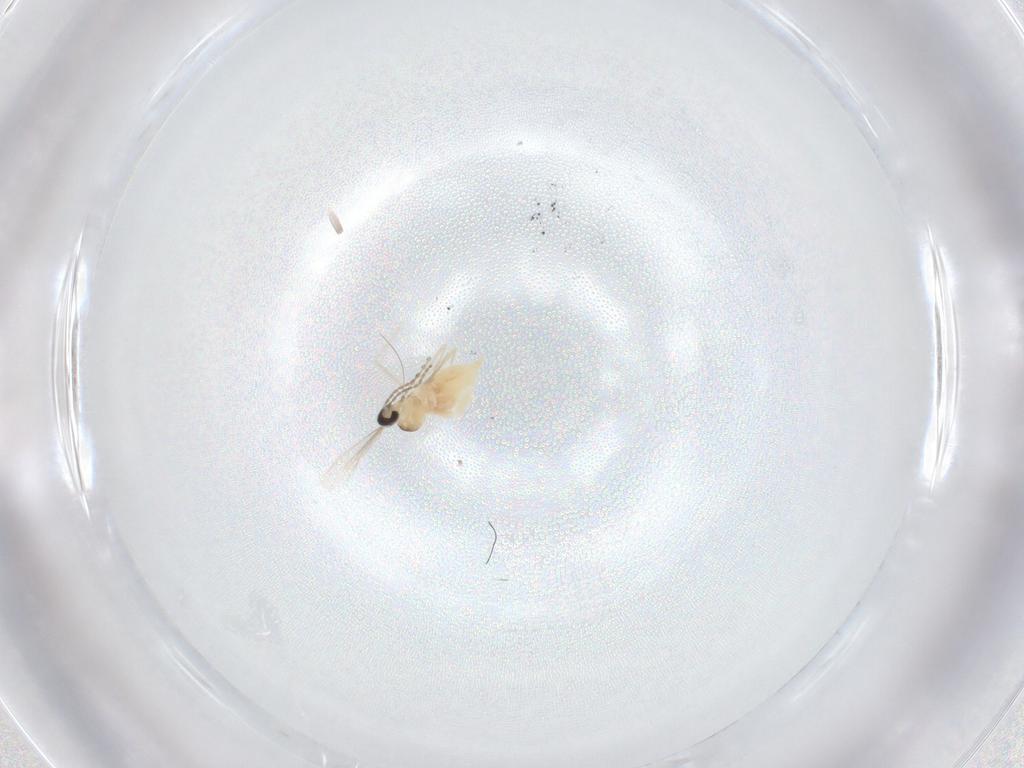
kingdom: Animalia
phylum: Arthropoda
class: Insecta
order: Diptera
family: Cecidomyiidae
